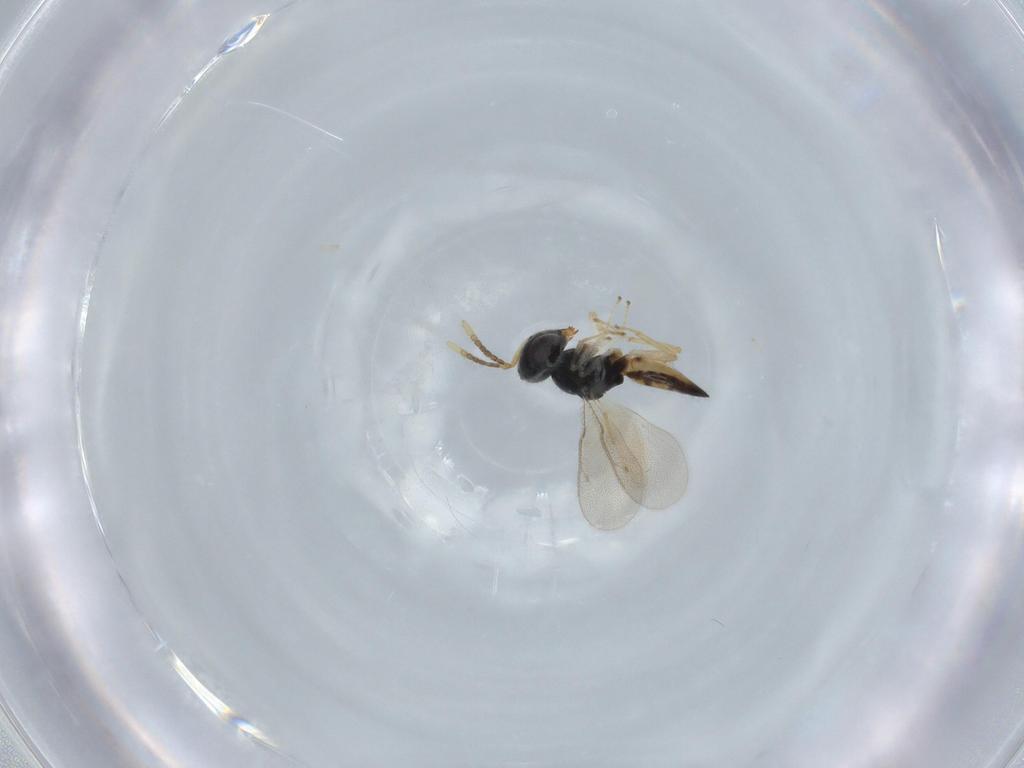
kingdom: Animalia
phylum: Arthropoda
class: Insecta
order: Hymenoptera
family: Pteromalidae
